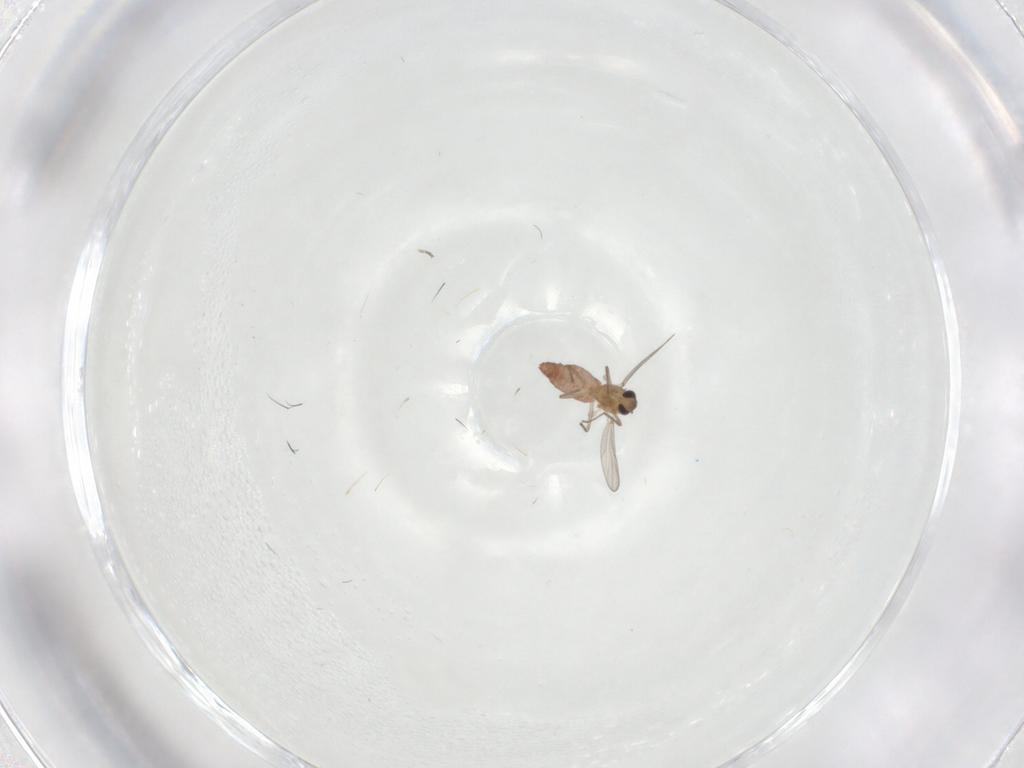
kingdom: Animalia
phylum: Arthropoda
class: Insecta
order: Diptera
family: Chironomidae
